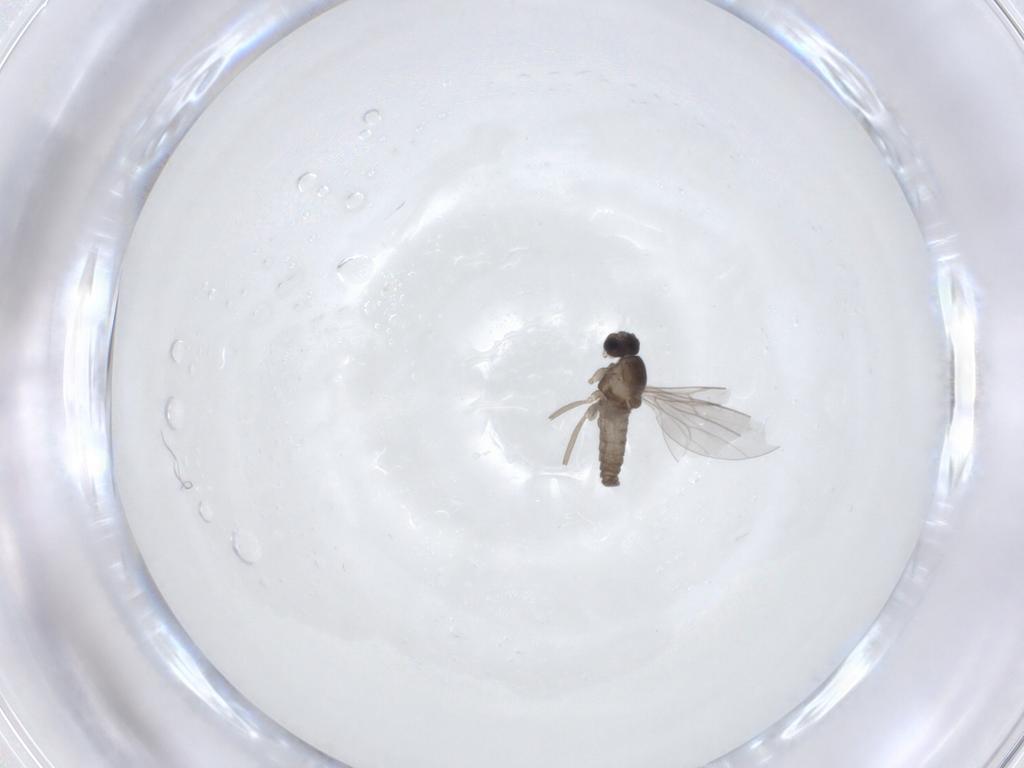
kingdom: Animalia
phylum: Arthropoda
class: Insecta
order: Diptera
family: Cecidomyiidae
